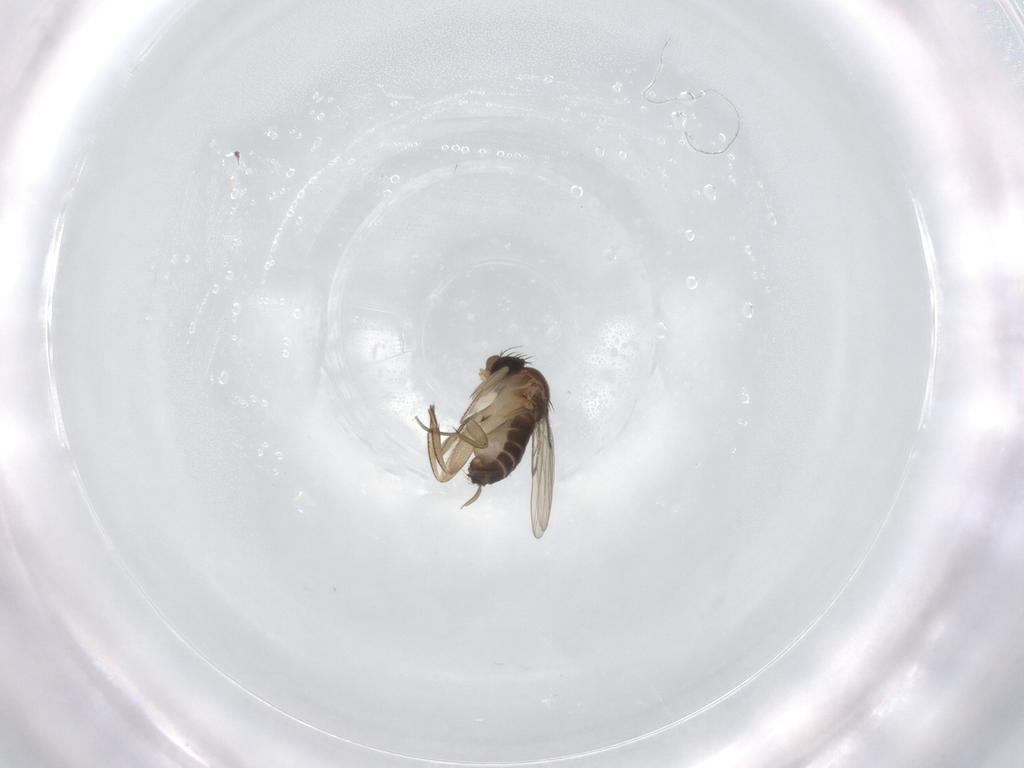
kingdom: Animalia
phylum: Arthropoda
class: Insecta
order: Diptera
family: Limoniidae
